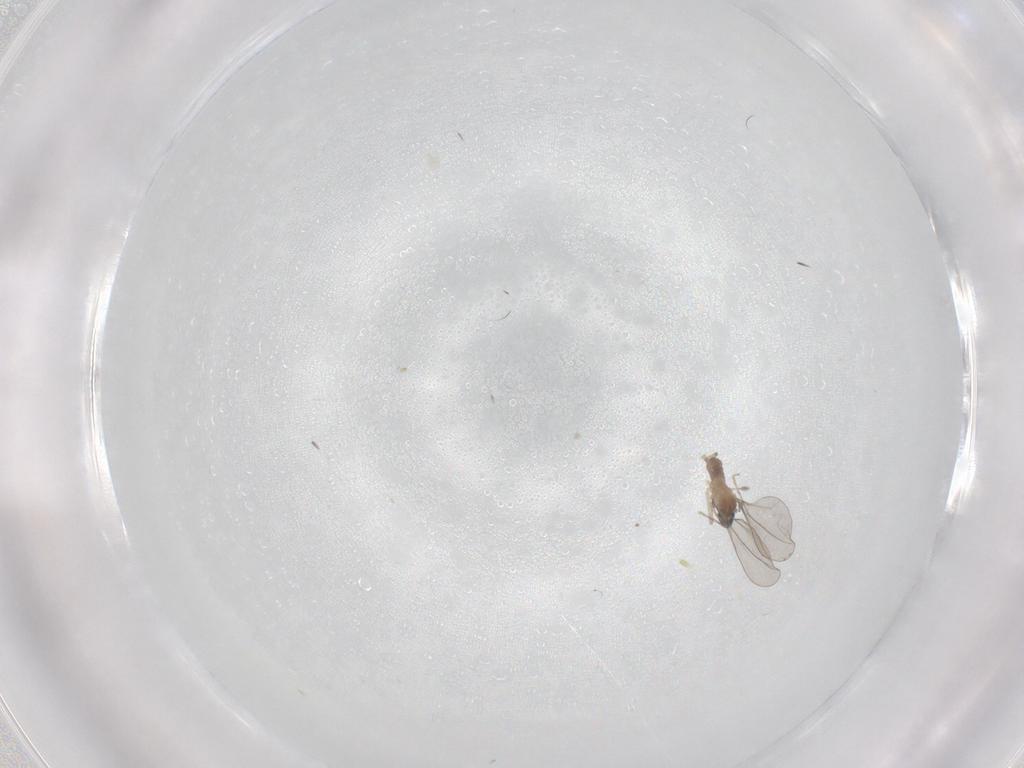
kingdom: Animalia
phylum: Arthropoda
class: Insecta
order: Diptera
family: Cecidomyiidae
